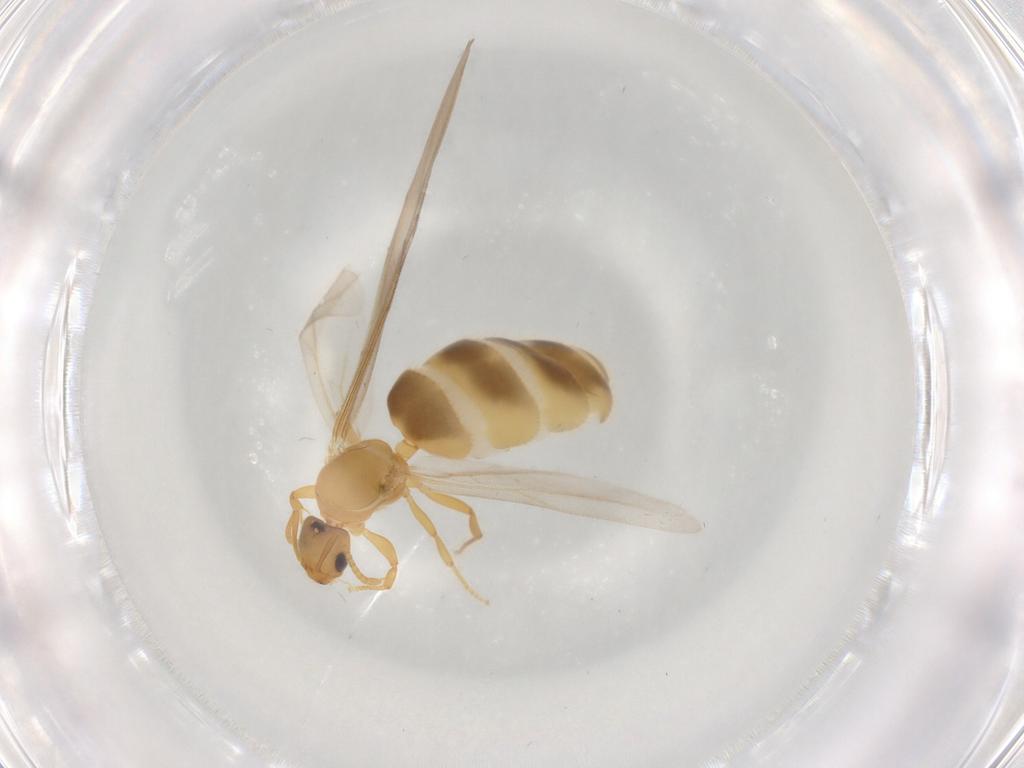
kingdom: Animalia
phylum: Arthropoda
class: Insecta
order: Hymenoptera
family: Formicidae
